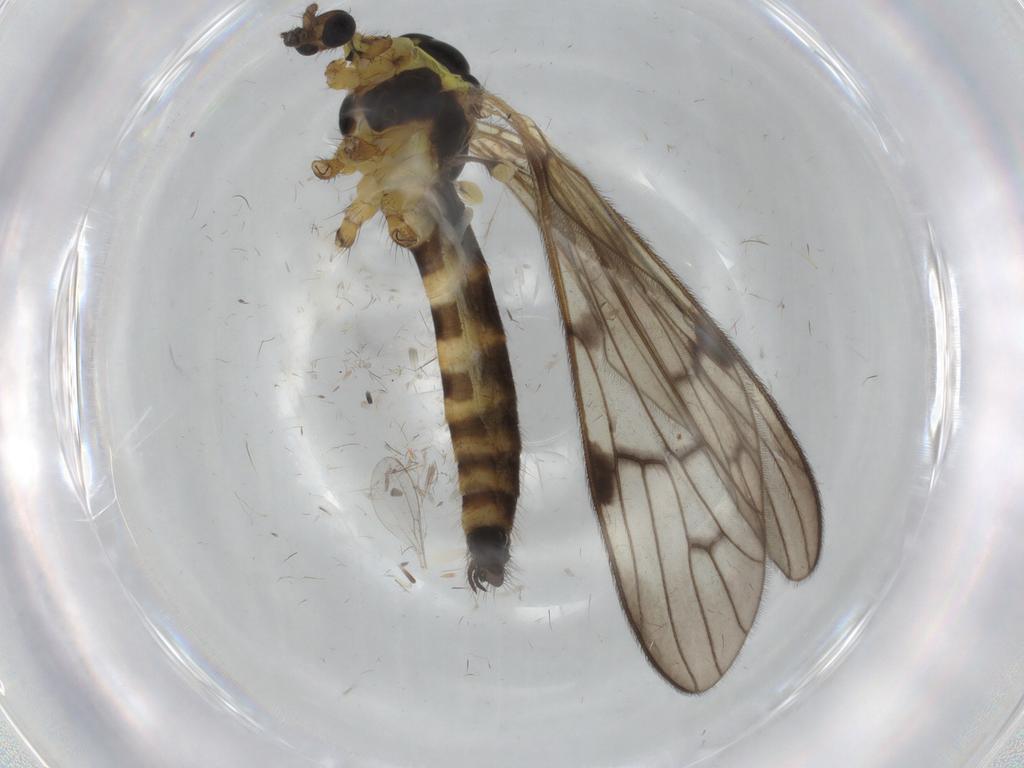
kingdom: Animalia
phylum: Arthropoda
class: Insecta
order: Diptera
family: Limoniidae
